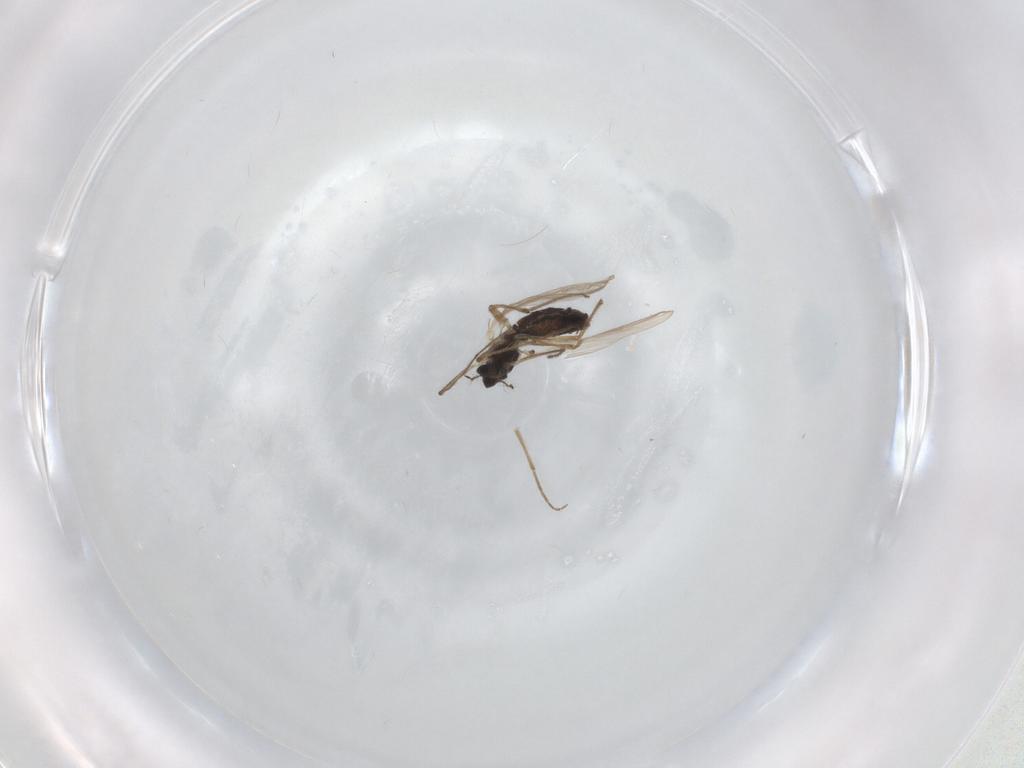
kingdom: Animalia
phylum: Arthropoda
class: Insecta
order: Diptera
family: Chironomidae
